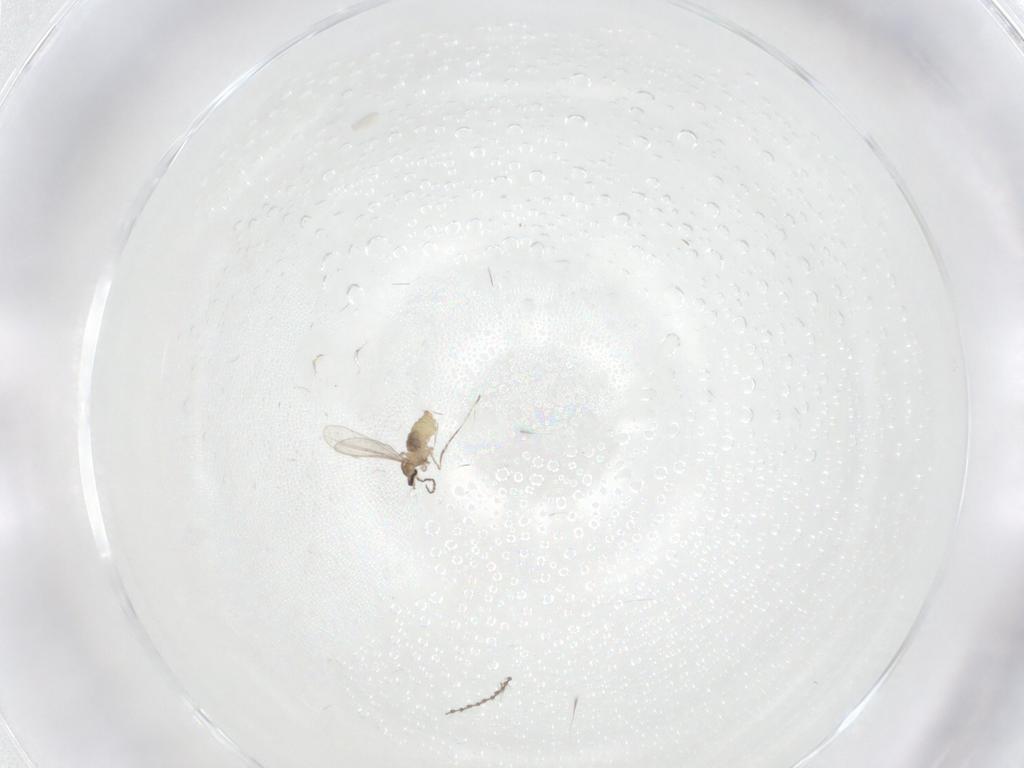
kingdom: Animalia
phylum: Arthropoda
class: Insecta
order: Diptera
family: Cecidomyiidae
